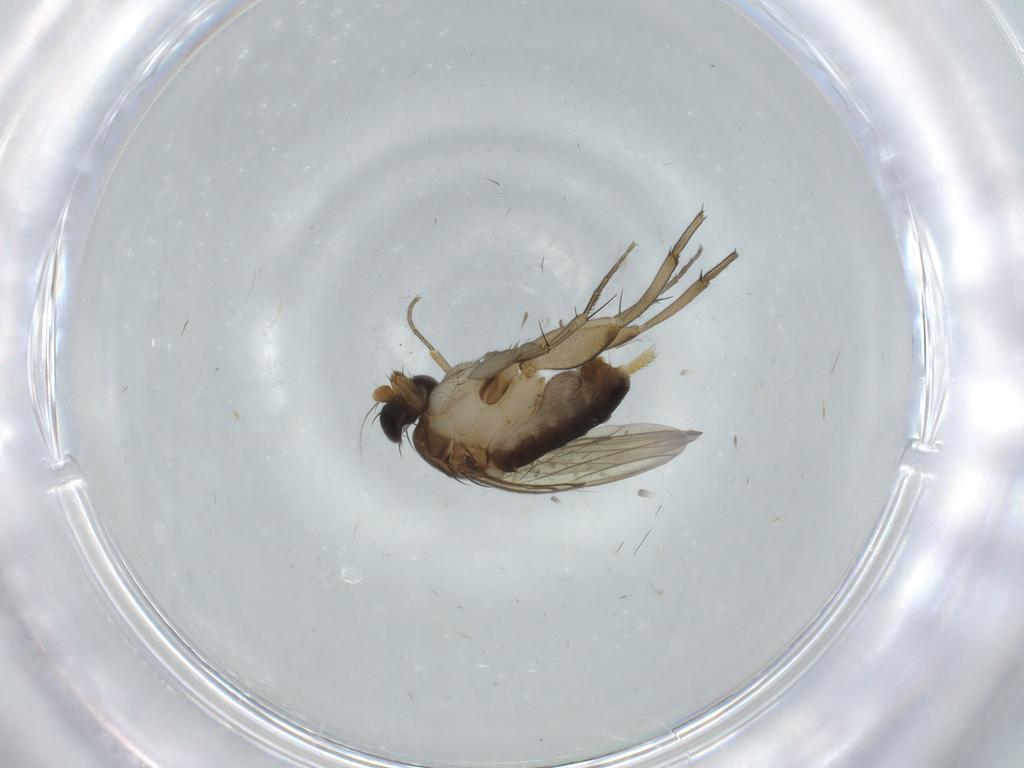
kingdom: Animalia
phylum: Arthropoda
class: Insecta
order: Diptera
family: Phoridae
